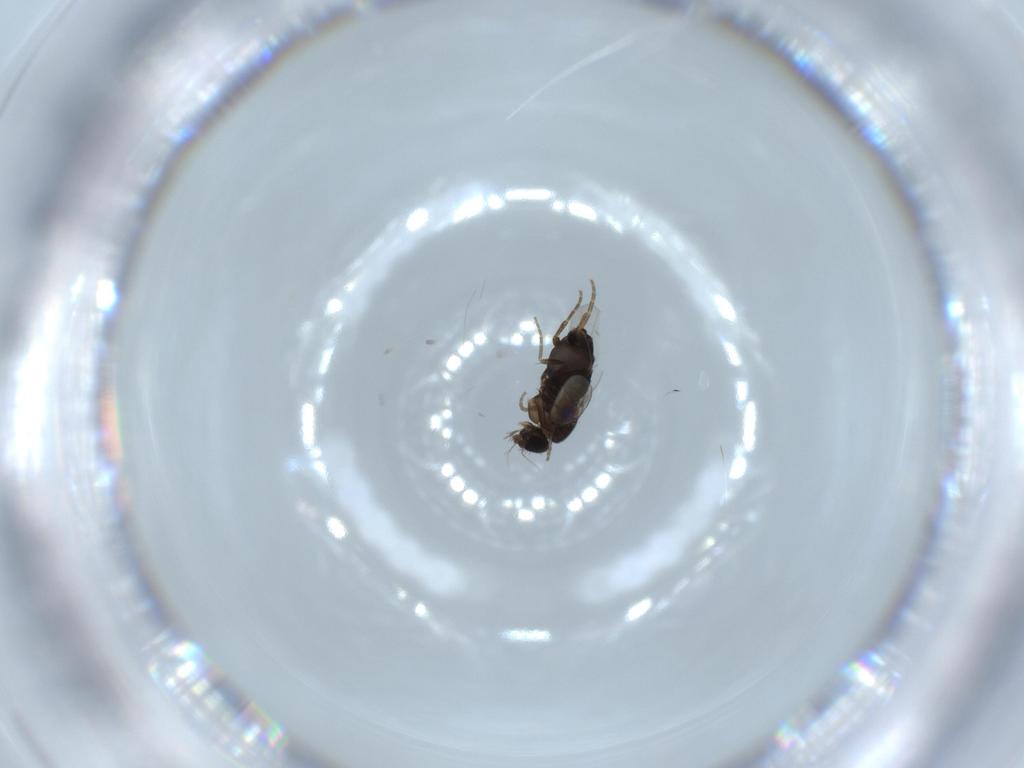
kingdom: Animalia
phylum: Arthropoda
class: Insecta
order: Diptera
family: Phoridae
